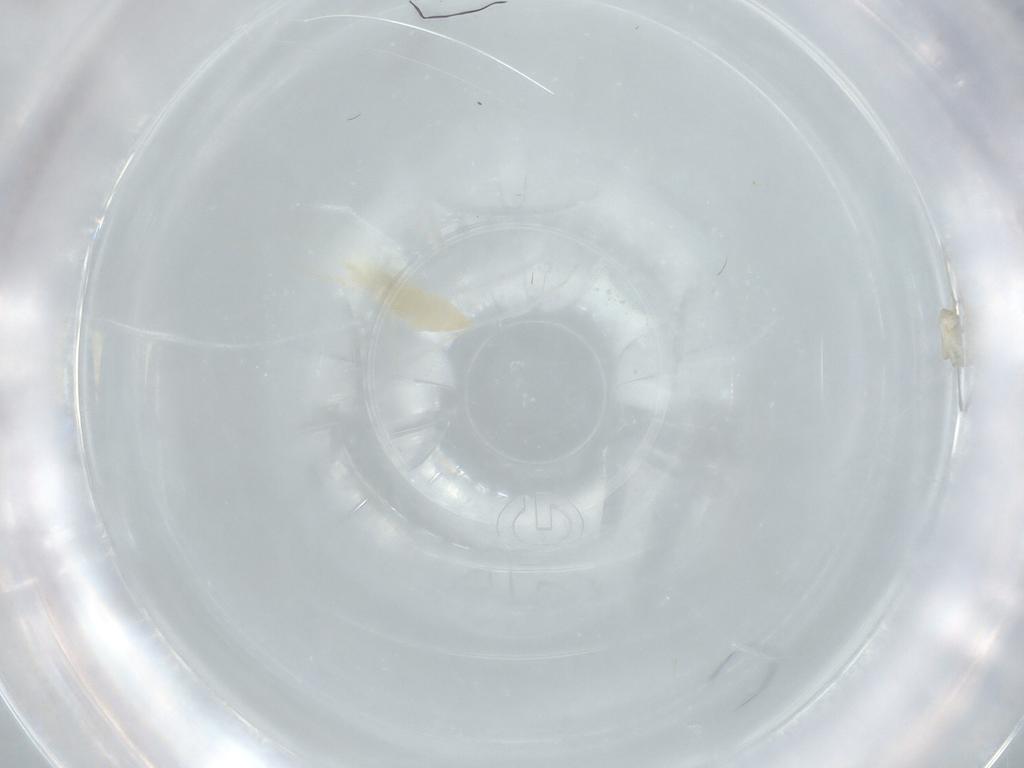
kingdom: Animalia
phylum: Arthropoda
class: Insecta
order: Diptera
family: Cecidomyiidae
